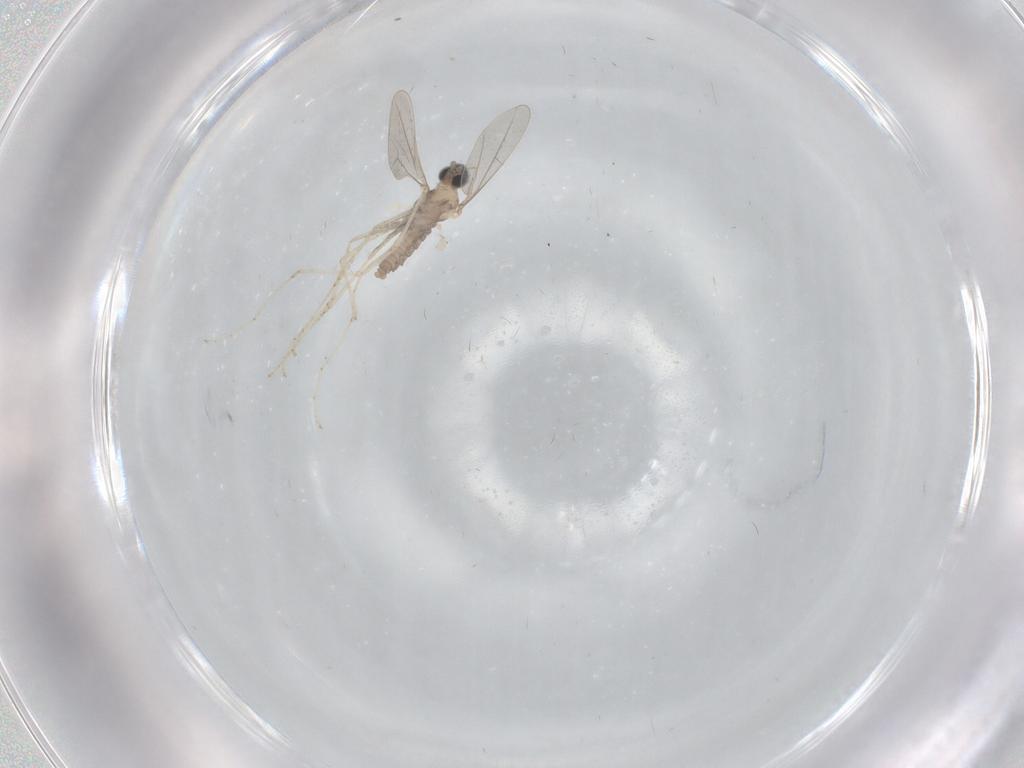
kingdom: Animalia
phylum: Arthropoda
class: Insecta
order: Diptera
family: Cecidomyiidae
